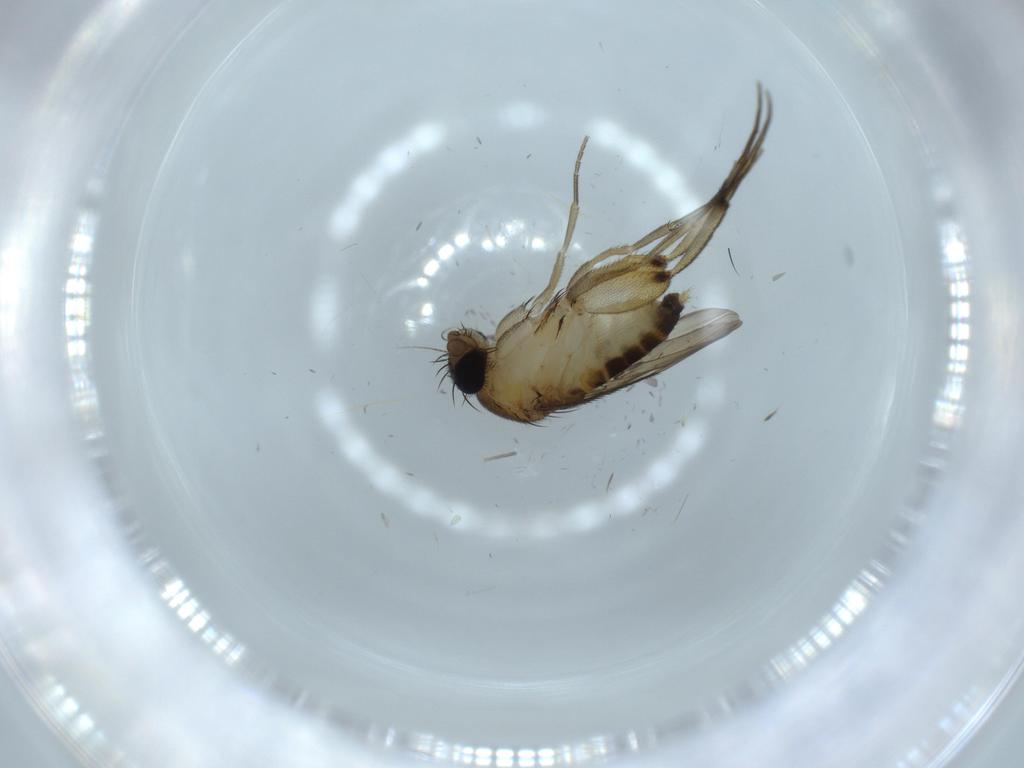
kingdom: Animalia
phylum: Arthropoda
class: Insecta
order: Diptera
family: Phoridae
